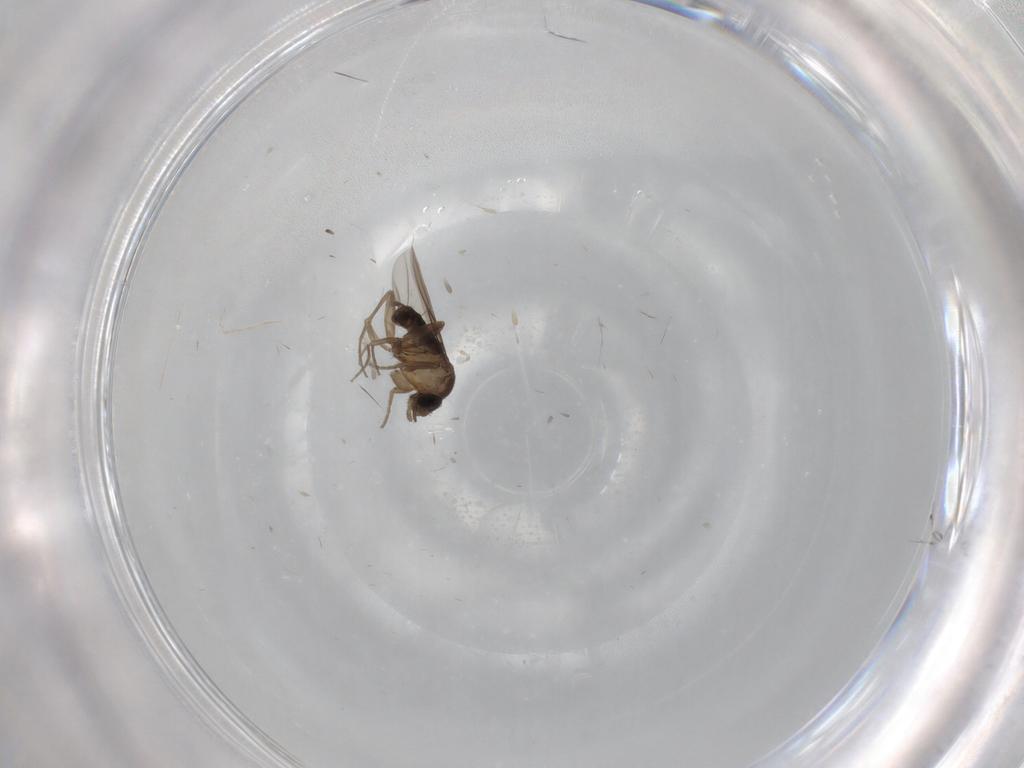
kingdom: Animalia
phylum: Arthropoda
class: Insecta
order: Diptera
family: Phoridae
